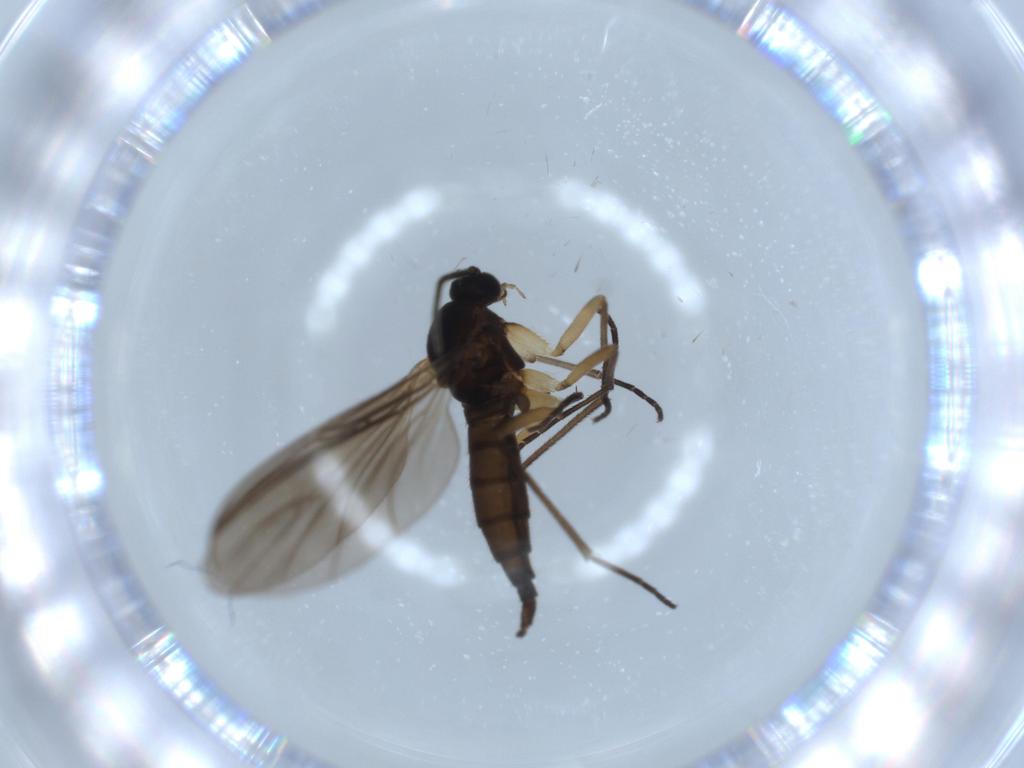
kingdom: Animalia
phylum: Arthropoda
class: Insecta
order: Diptera
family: Sciaridae
